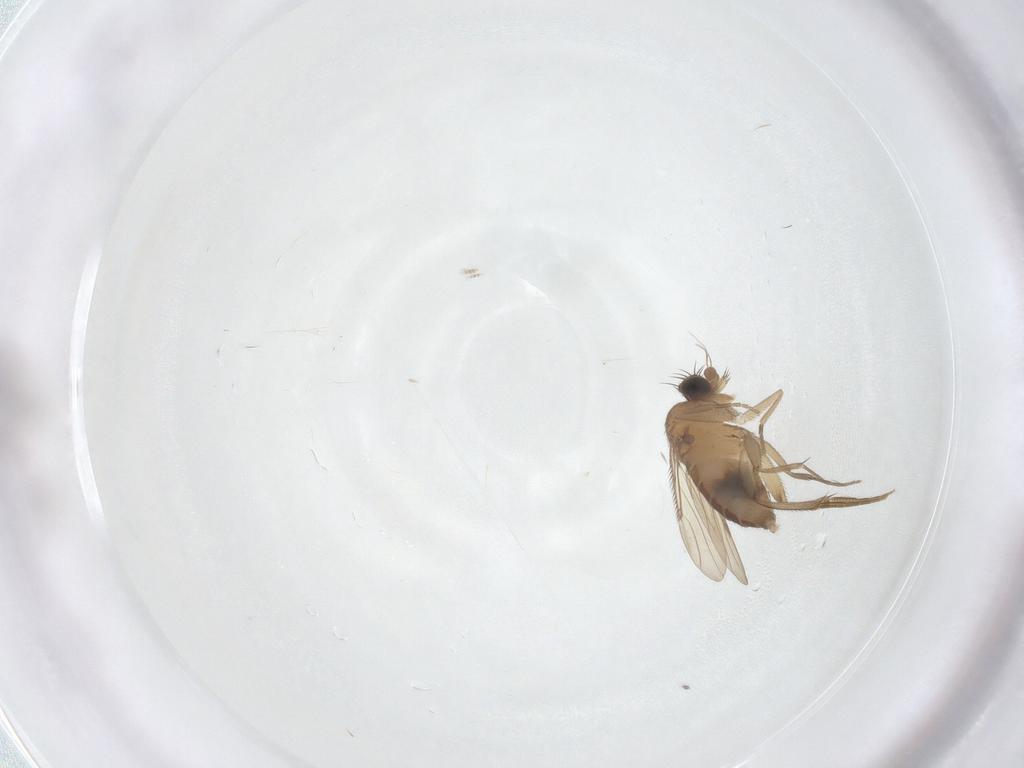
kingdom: Animalia
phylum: Arthropoda
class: Insecta
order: Diptera
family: Phoridae
